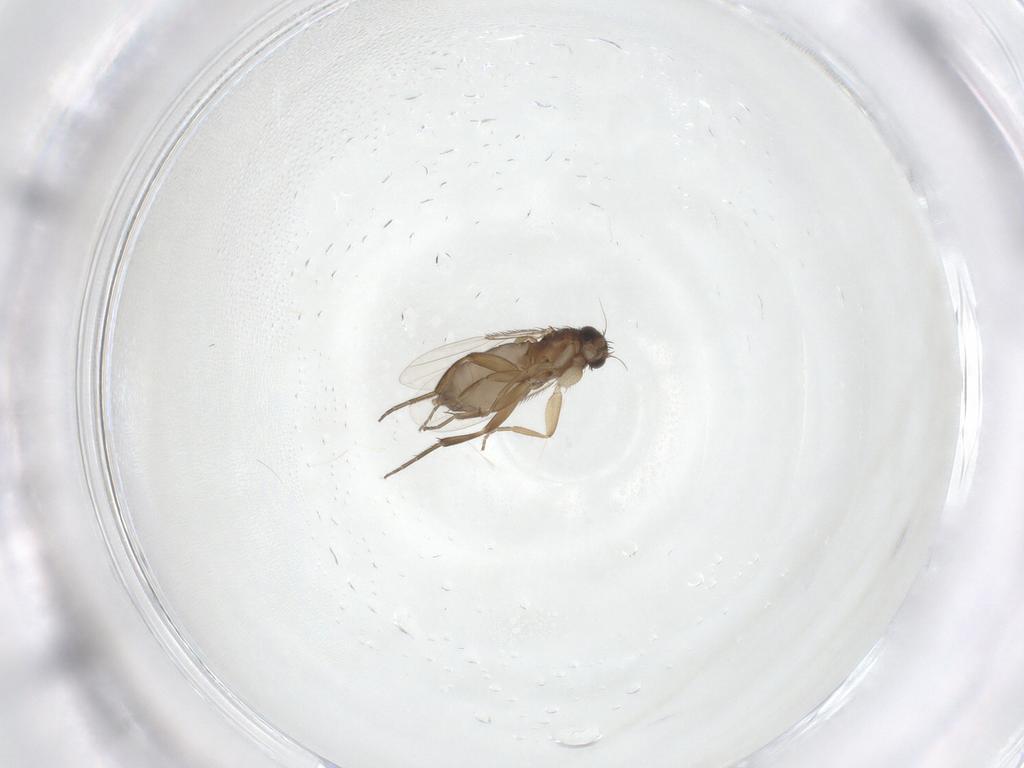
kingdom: Animalia
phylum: Arthropoda
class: Insecta
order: Diptera
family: Phoridae
